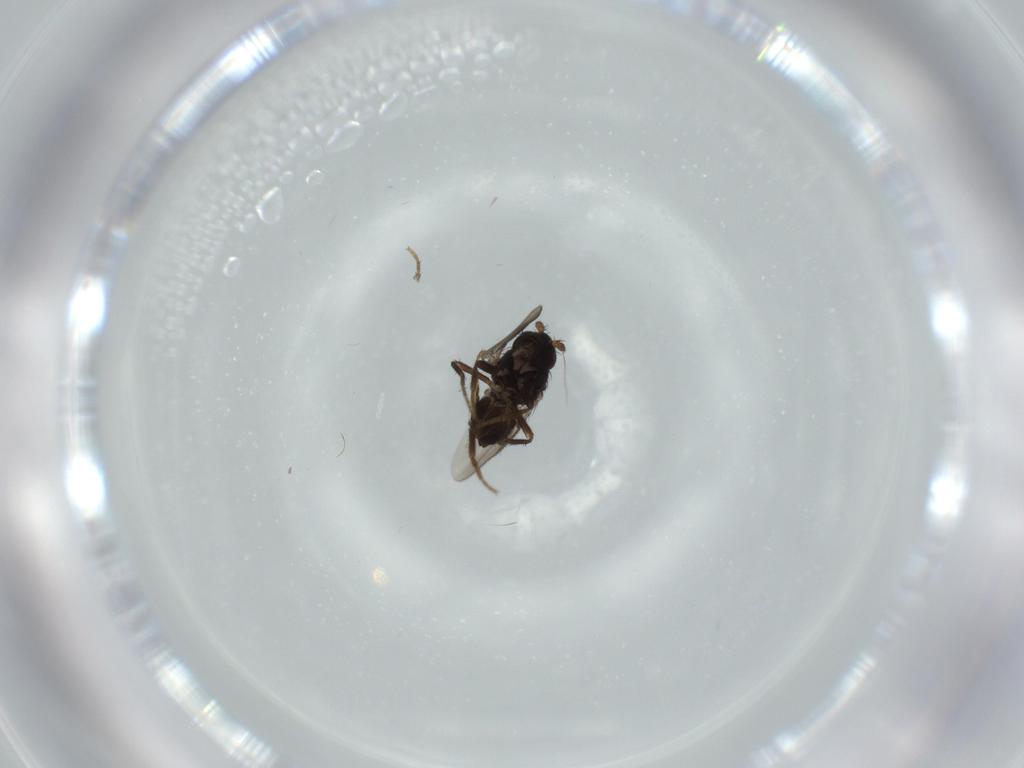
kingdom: Animalia
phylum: Arthropoda
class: Insecta
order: Diptera
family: Sphaeroceridae
